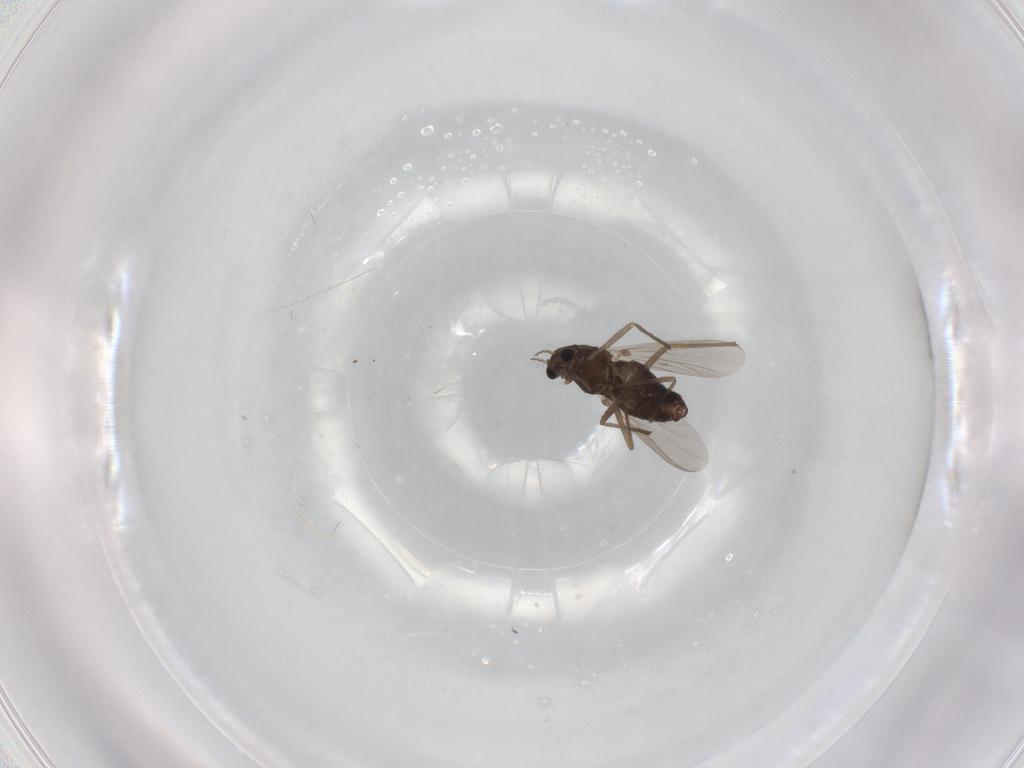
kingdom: Animalia
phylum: Arthropoda
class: Insecta
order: Diptera
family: Chironomidae
